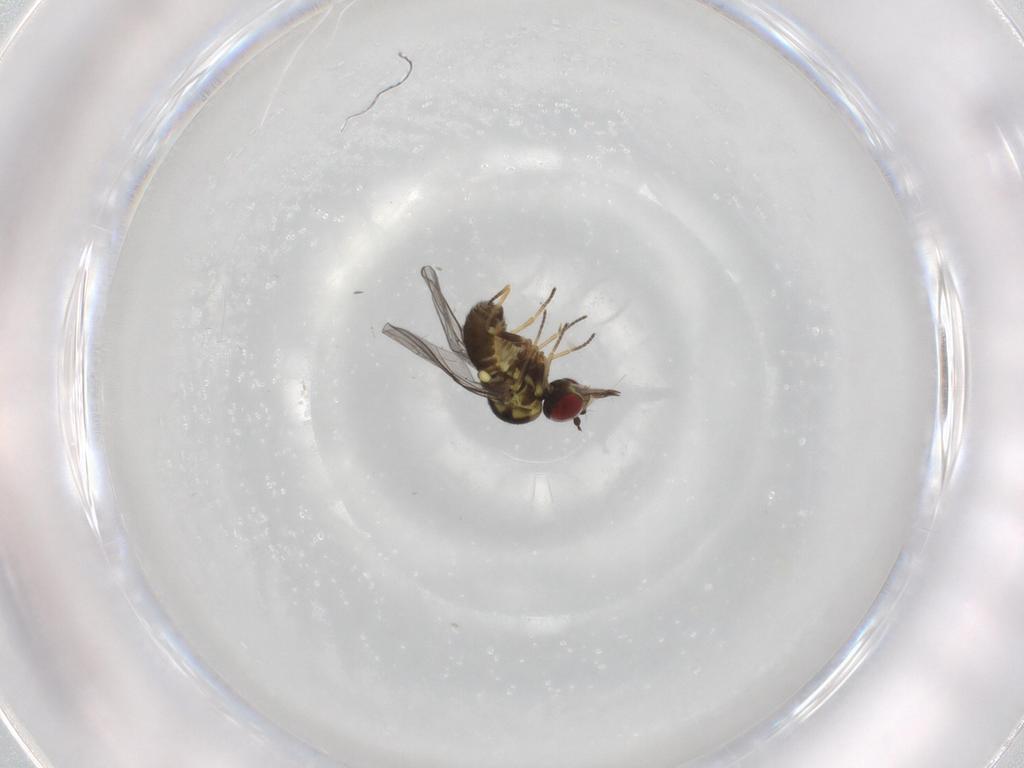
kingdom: Animalia
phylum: Arthropoda
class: Insecta
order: Diptera
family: Bombyliidae
